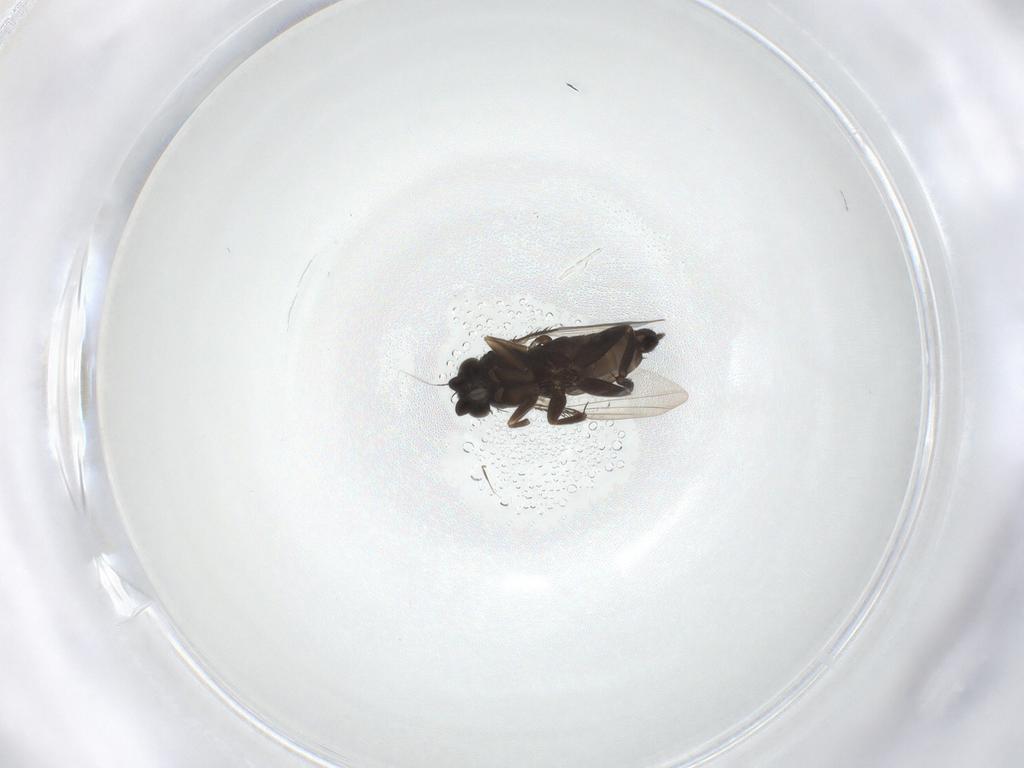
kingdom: Animalia
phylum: Arthropoda
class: Insecta
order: Diptera
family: Phoridae
